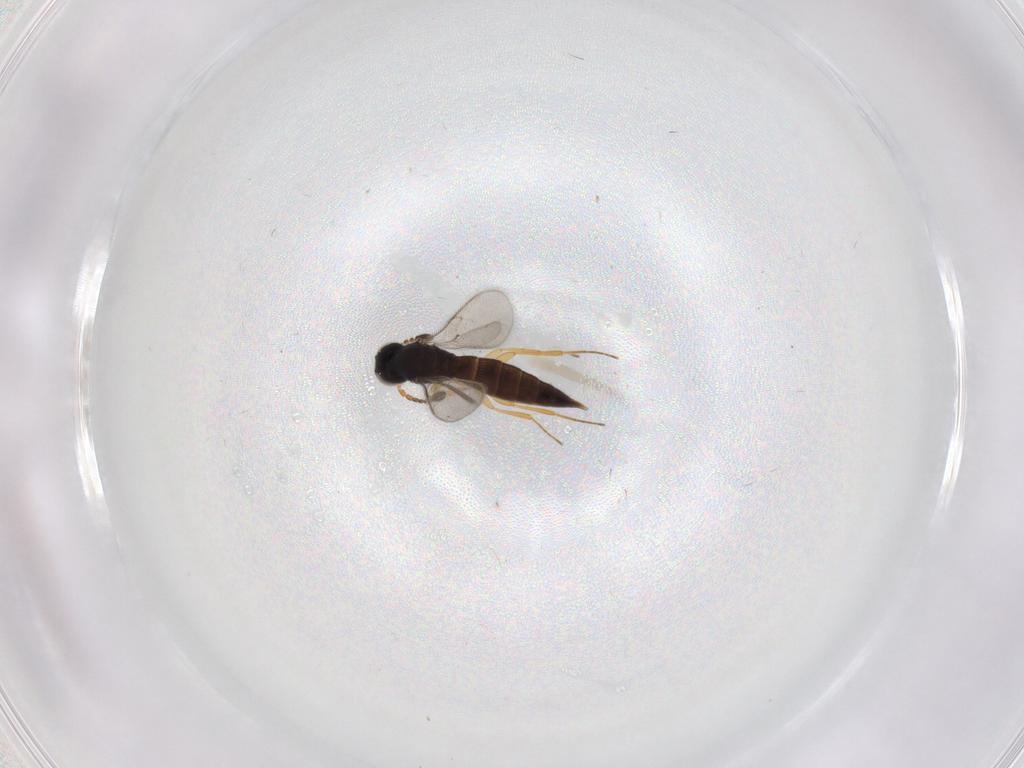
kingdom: Animalia
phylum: Arthropoda
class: Insecta
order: Hymenoptera
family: Scelionidae
